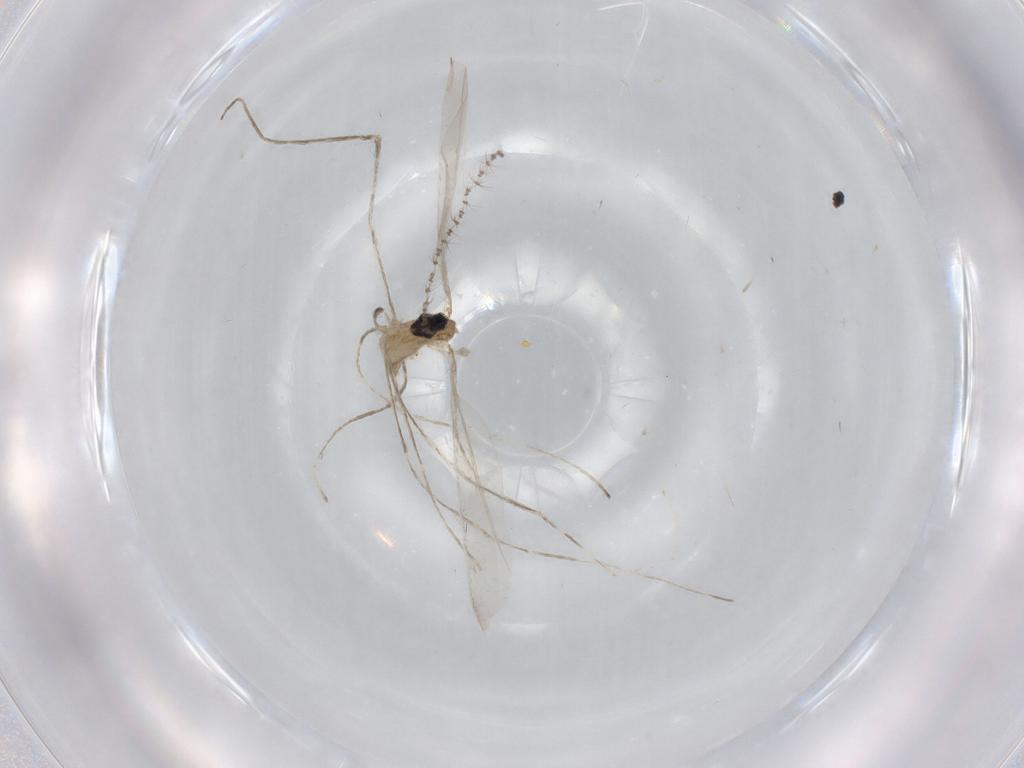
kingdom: Animalia
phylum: Arthropoda
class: Insecta
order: Diptera
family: Cecidomyiidae
